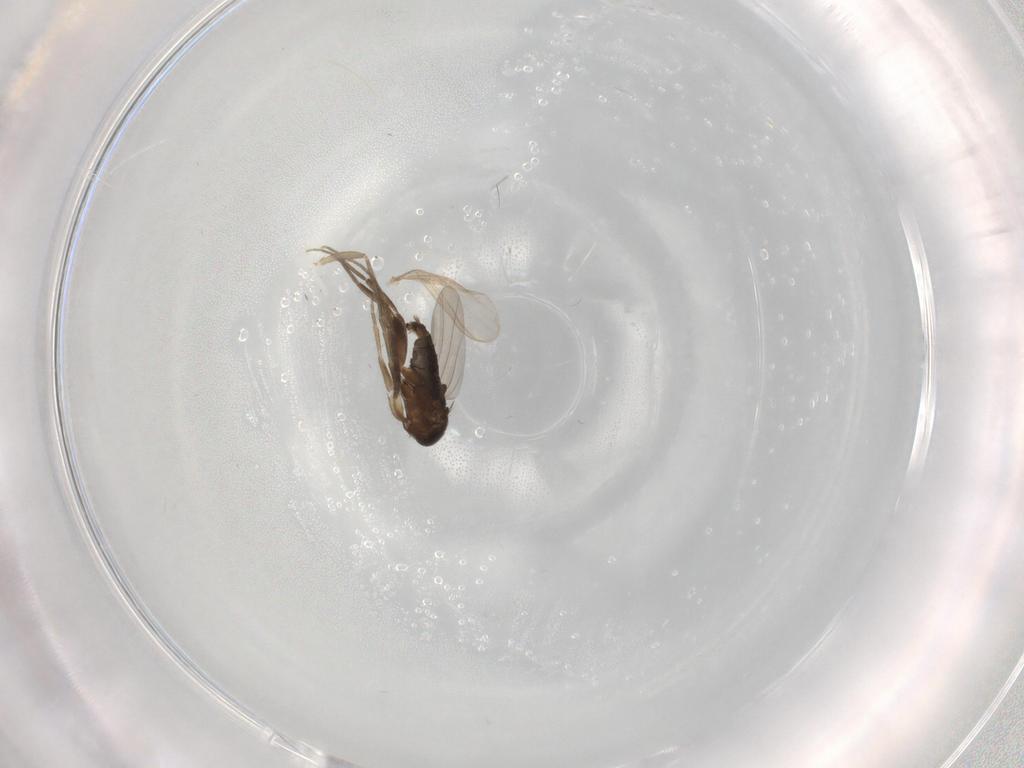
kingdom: Animalia
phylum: Arthropoda
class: Insecta
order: Diptera
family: Phoridae
